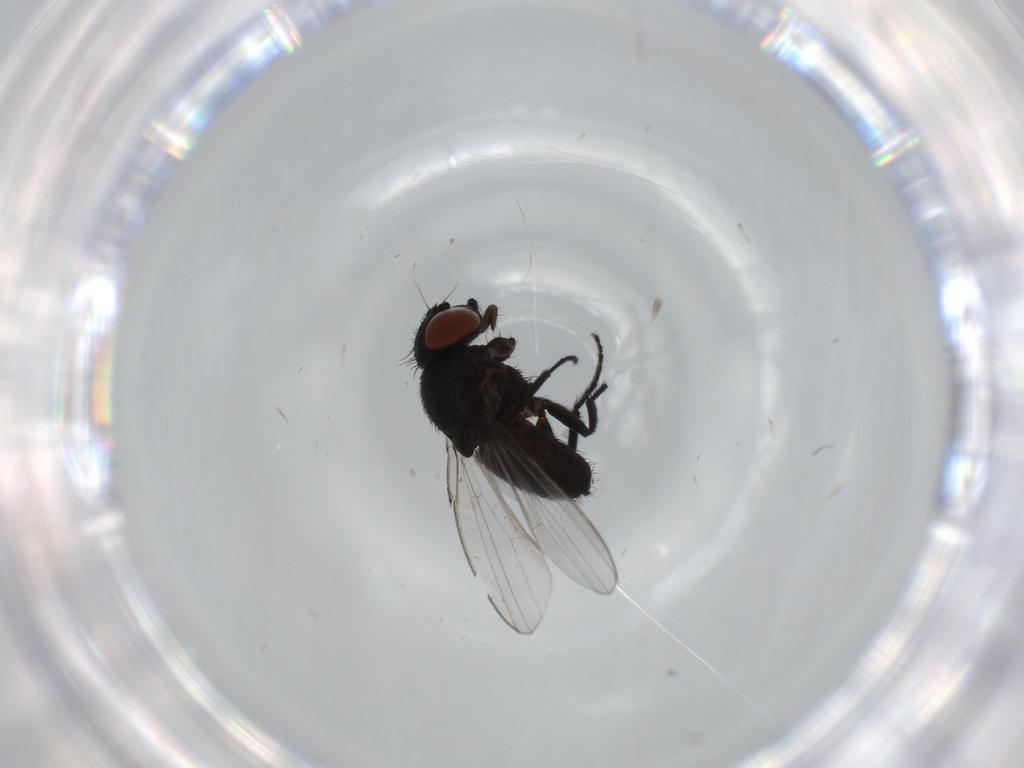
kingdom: Animalia
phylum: Arthropoda
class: Insecta
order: Diptera
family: Milichiidae
